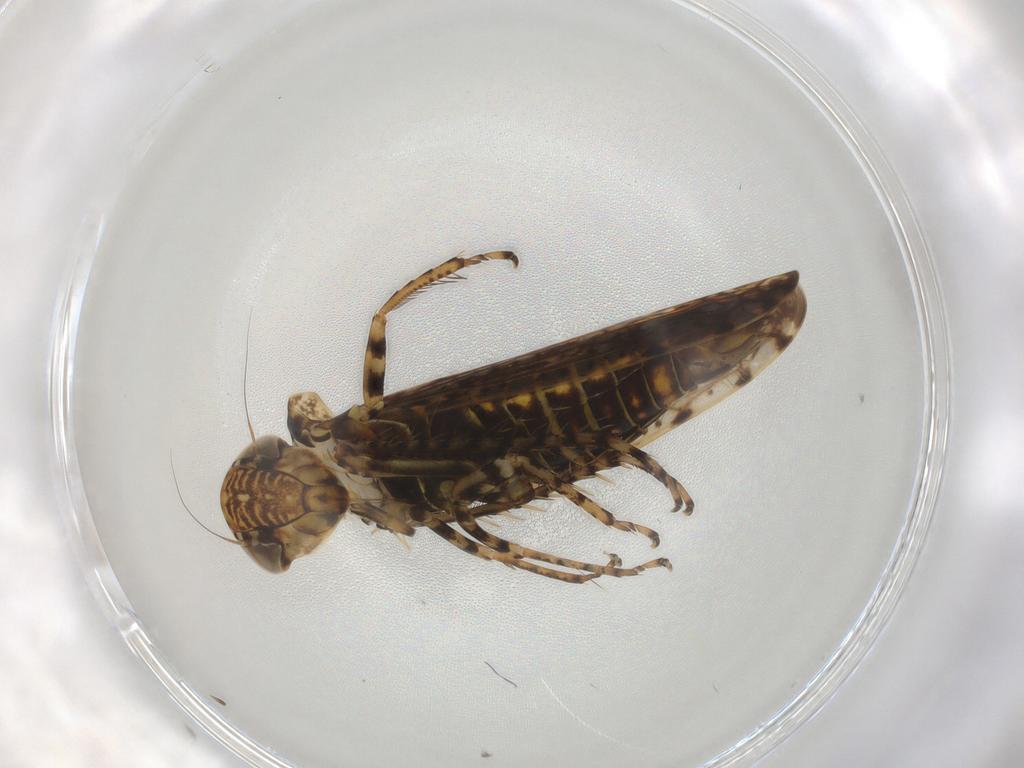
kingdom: Animalia
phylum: Arthropoda
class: Insecta
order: Hemiptera
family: Cicadellidae
